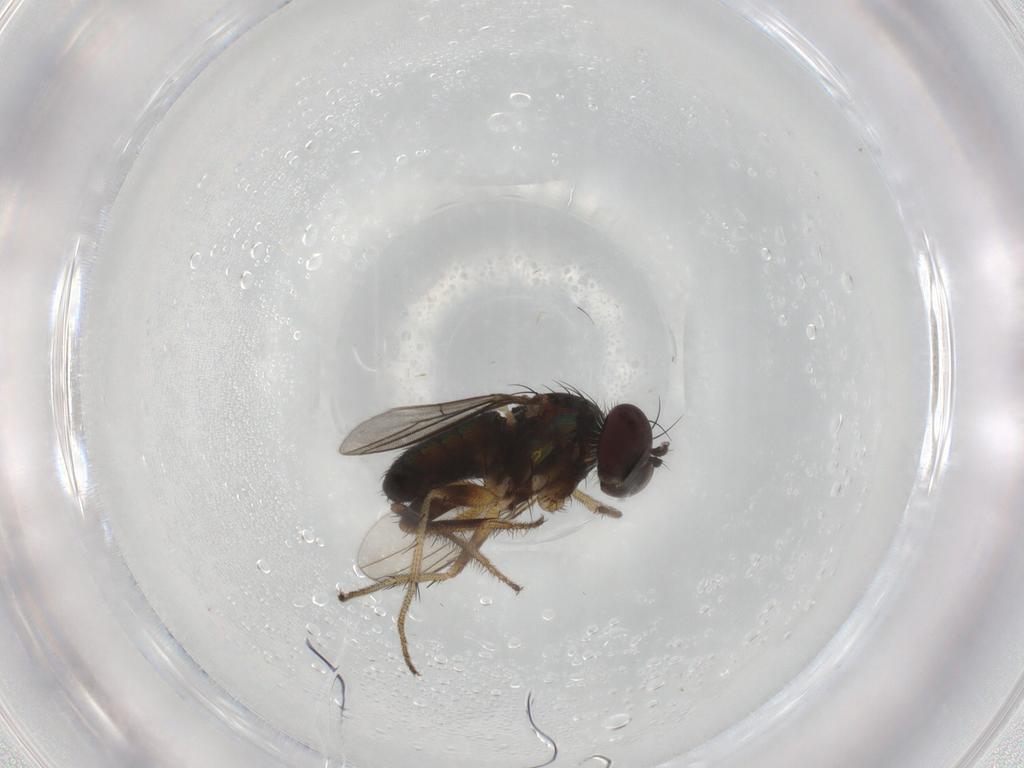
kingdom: Animalia
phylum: Arthropoda
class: Insecta
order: Diptera
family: Dolichopodidae
